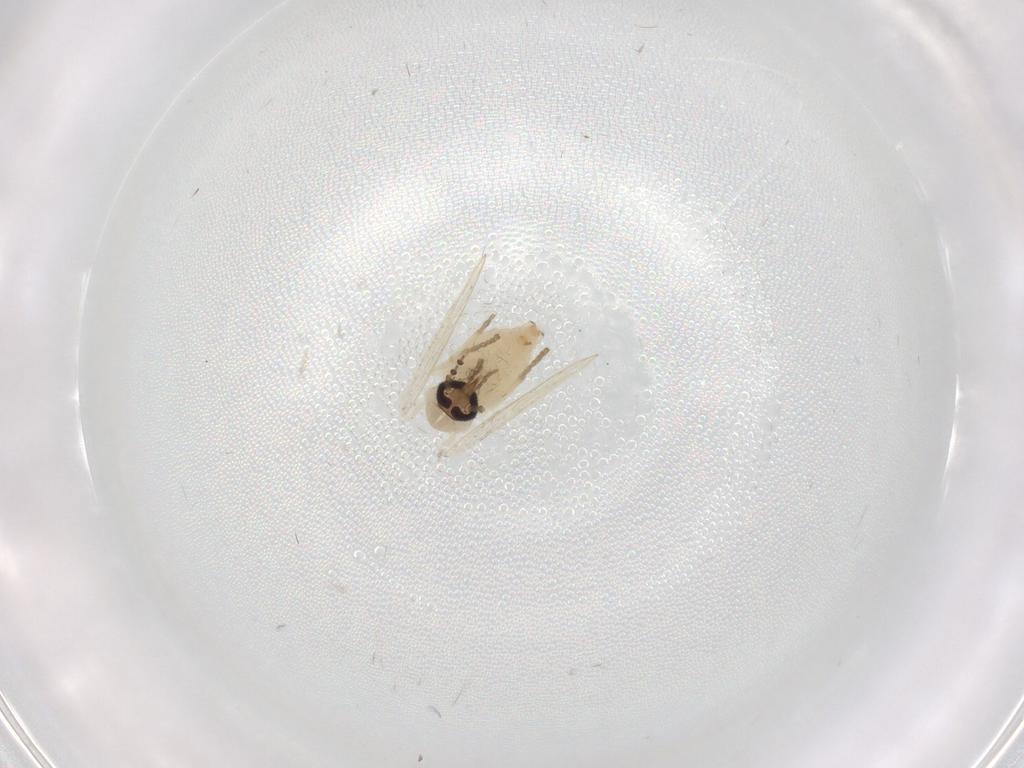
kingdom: Animalia
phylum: Arthropoda
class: Insecta
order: Diptera
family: Psychodidae
